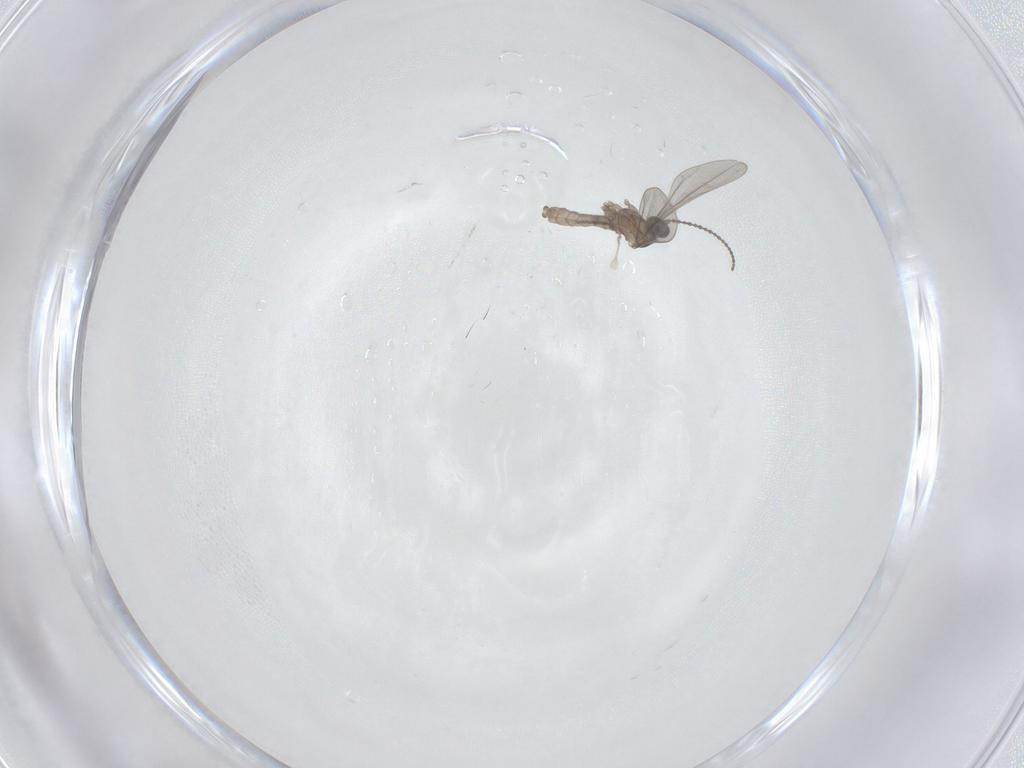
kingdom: Animalia
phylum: Arthropoda
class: Insecta
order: Diptera
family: Cecidomyiidae
